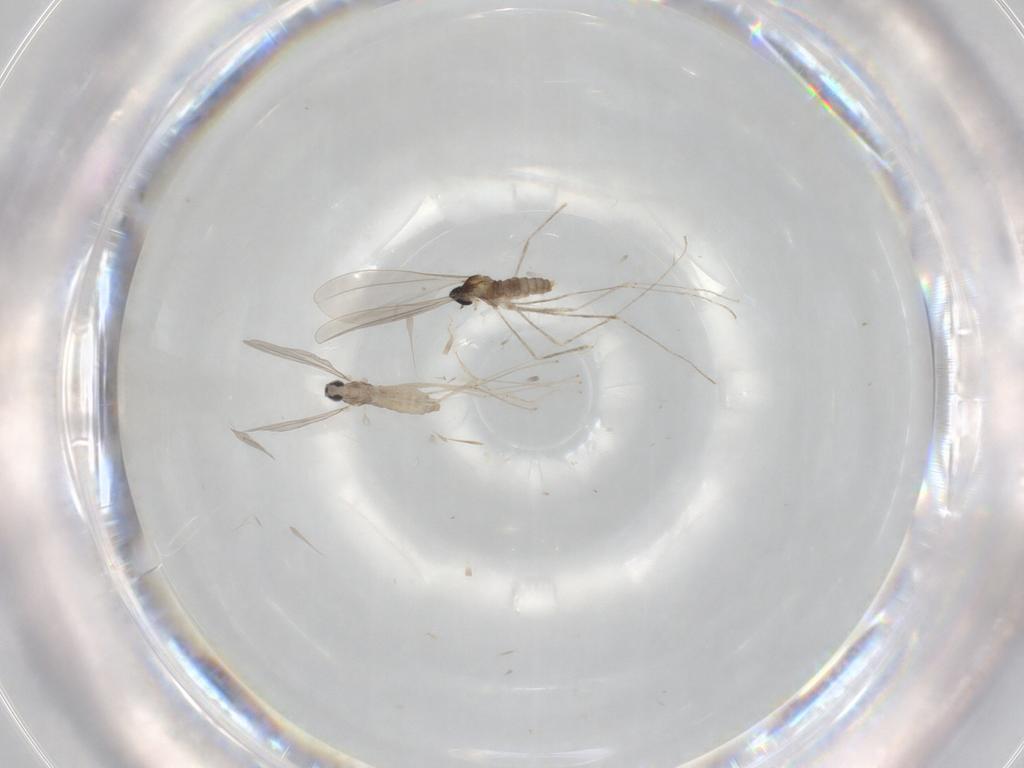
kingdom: Animalia
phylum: Arthropoda
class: Insecta
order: Diptera
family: Cecidomyiidae
